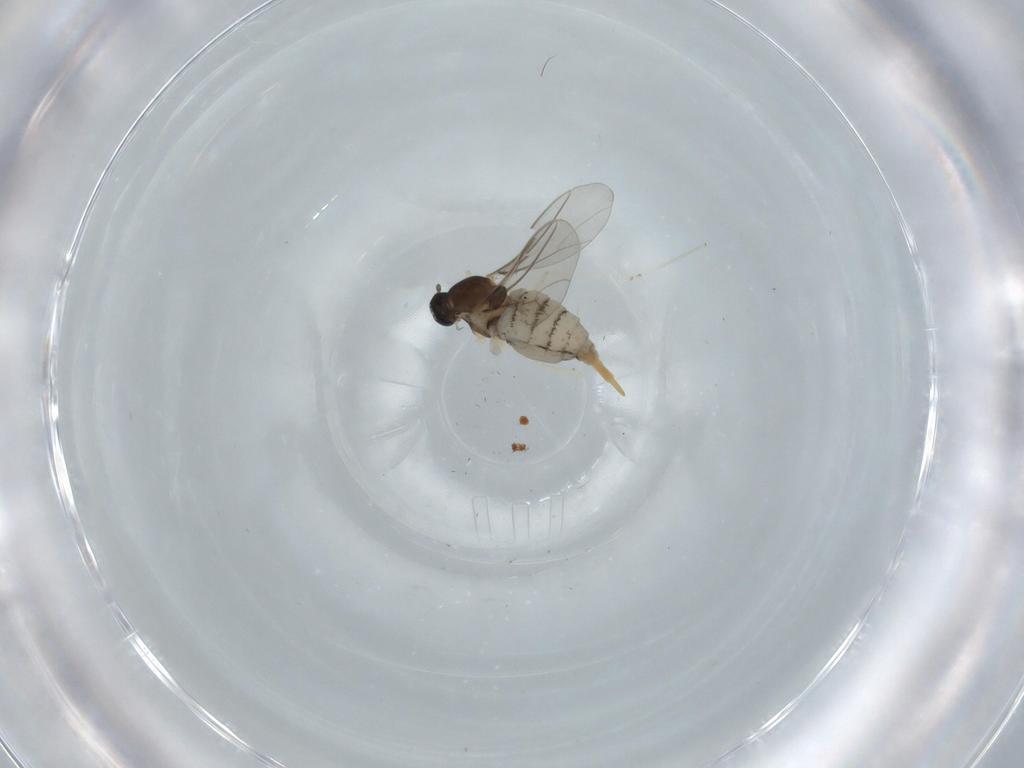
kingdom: Animalia
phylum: Arthropoda
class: Insecta
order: Diptera
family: Cecidomyiidae
